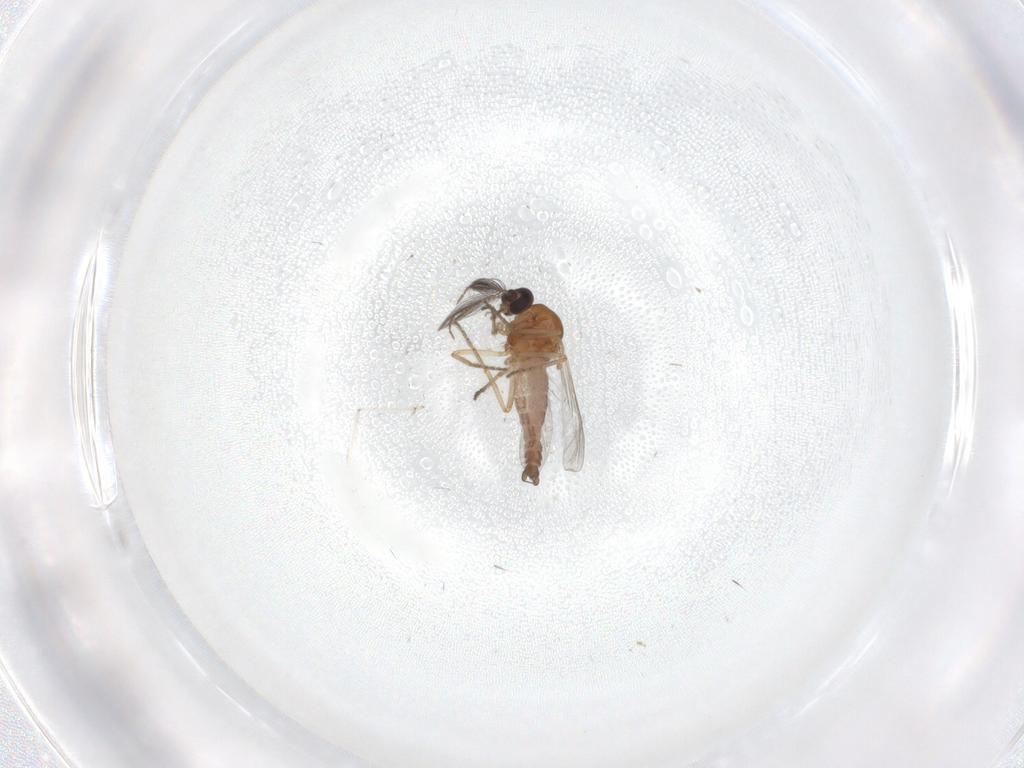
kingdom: Animalia
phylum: Arthropoda
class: Insecta
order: Diptera
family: Ceratopogonidae
